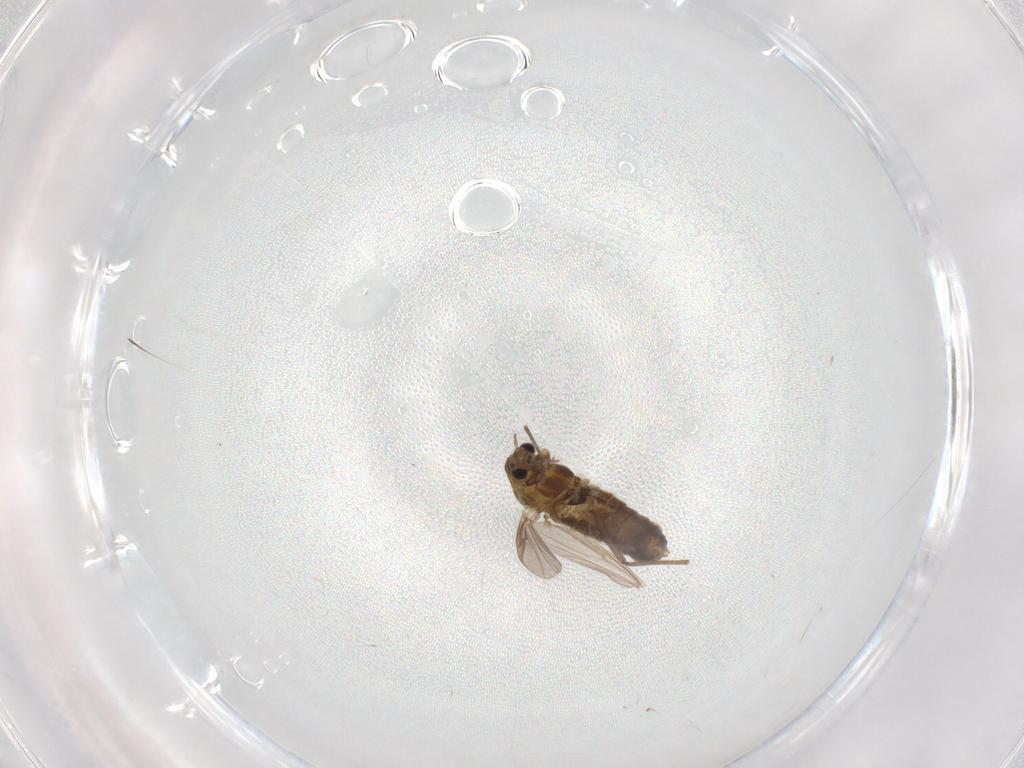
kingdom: Animalia
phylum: Arthropoda
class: Insecta
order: Diptera
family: Chironomidae
